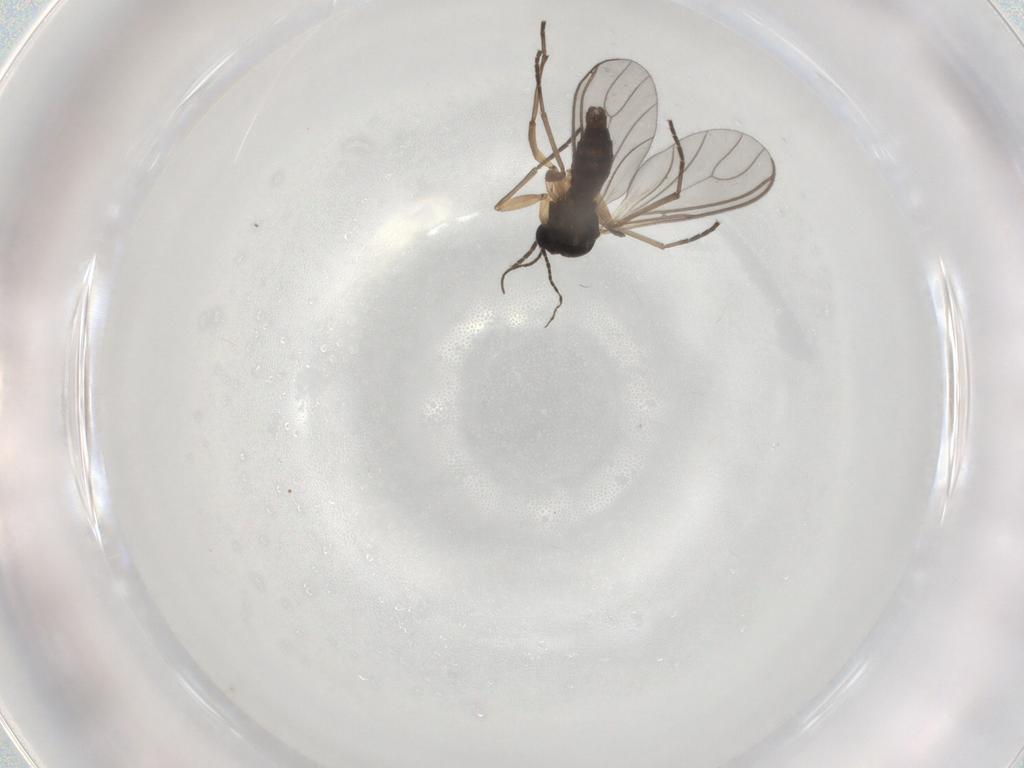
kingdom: Animalia
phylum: Arthropoda
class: Insecta
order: Diptera
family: Sciaridae
